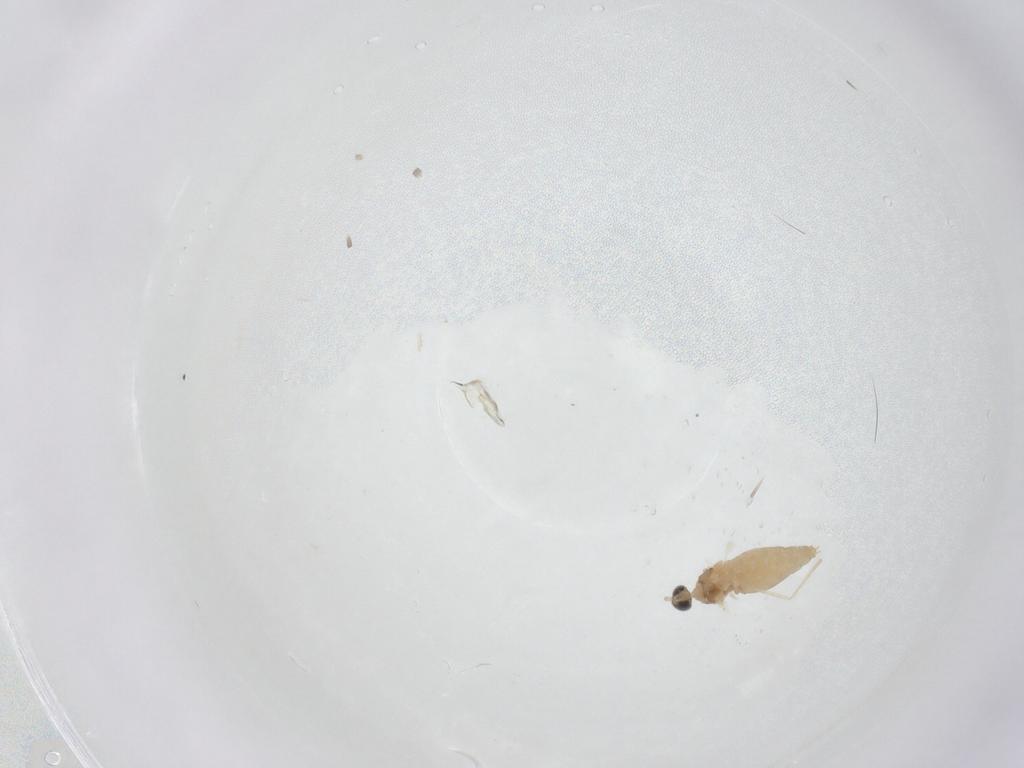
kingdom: Animalia
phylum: Arthropoda
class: Insecta
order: Diptera
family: Cecidomyiidae
